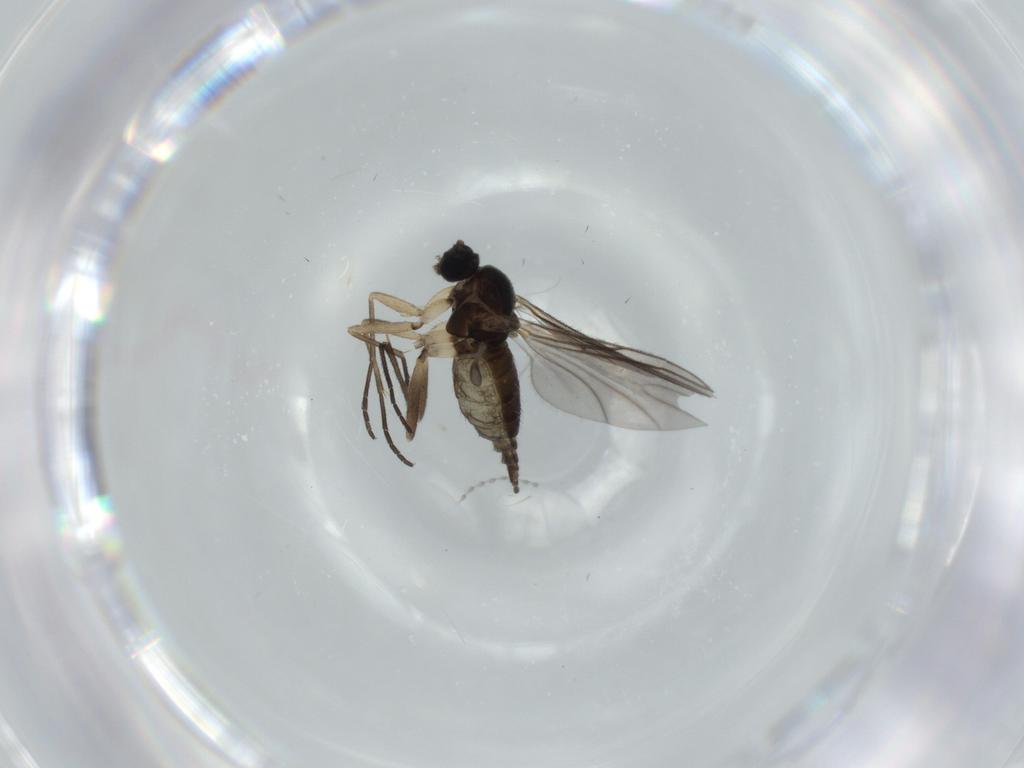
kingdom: Animalia
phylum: Arthropoda
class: Insecta
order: Diptera
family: Sciaridae
